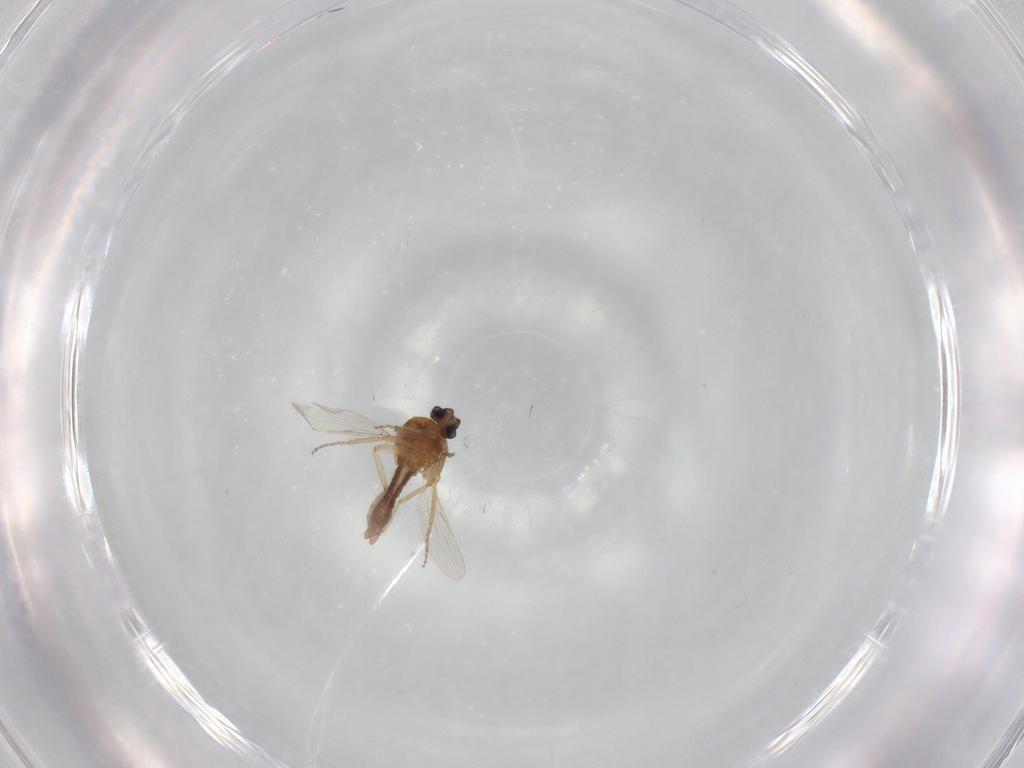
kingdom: Animalia
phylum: Arthropoda
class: Insecta
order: Diptera
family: Ceratopogonidae
